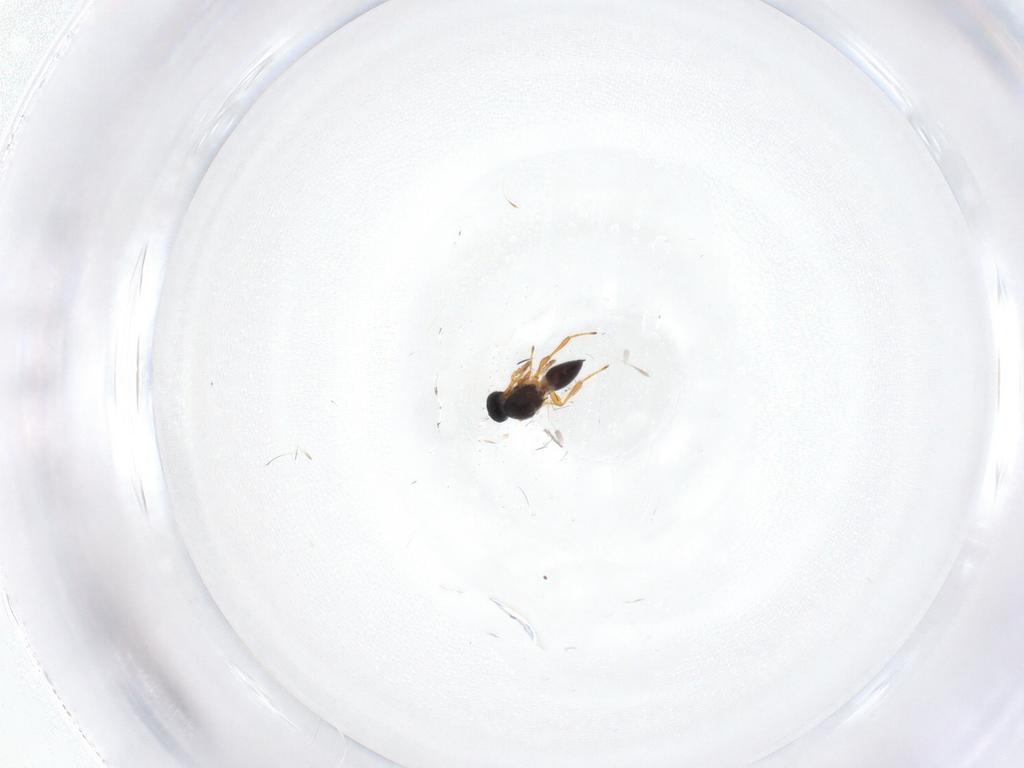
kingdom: Animalia
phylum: Arthropoda
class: Insecta
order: Hymenoptera
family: Platygastridae
